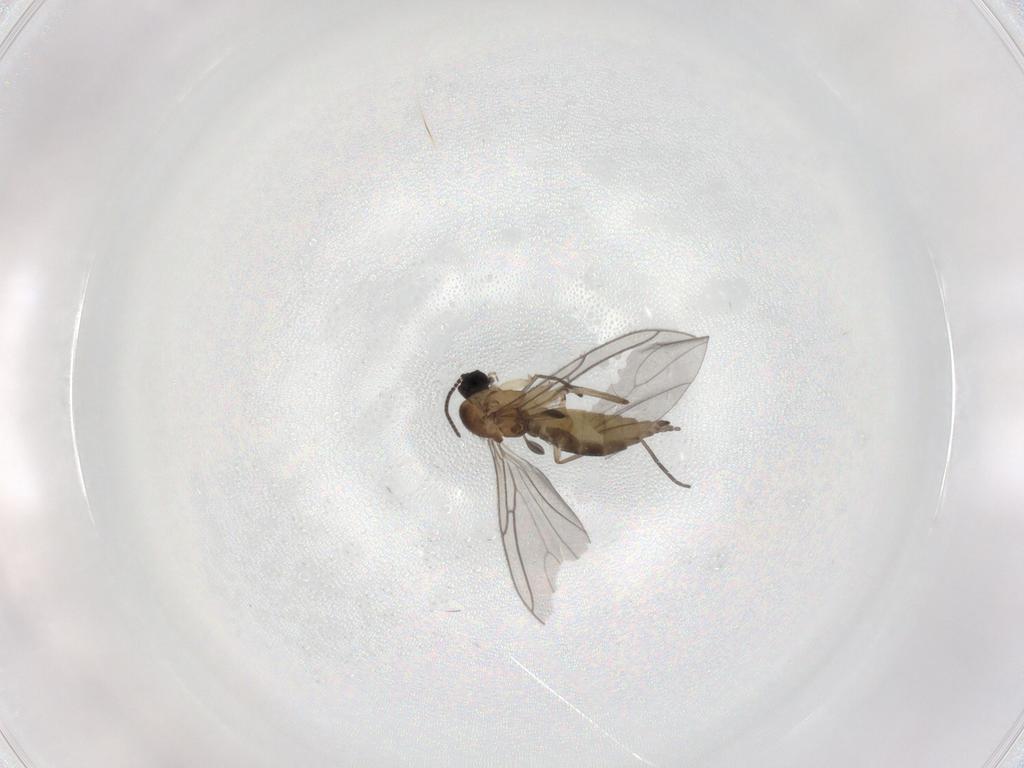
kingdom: Animalia
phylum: Arthropoda
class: Insecta
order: Diptera
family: Sciaridae
